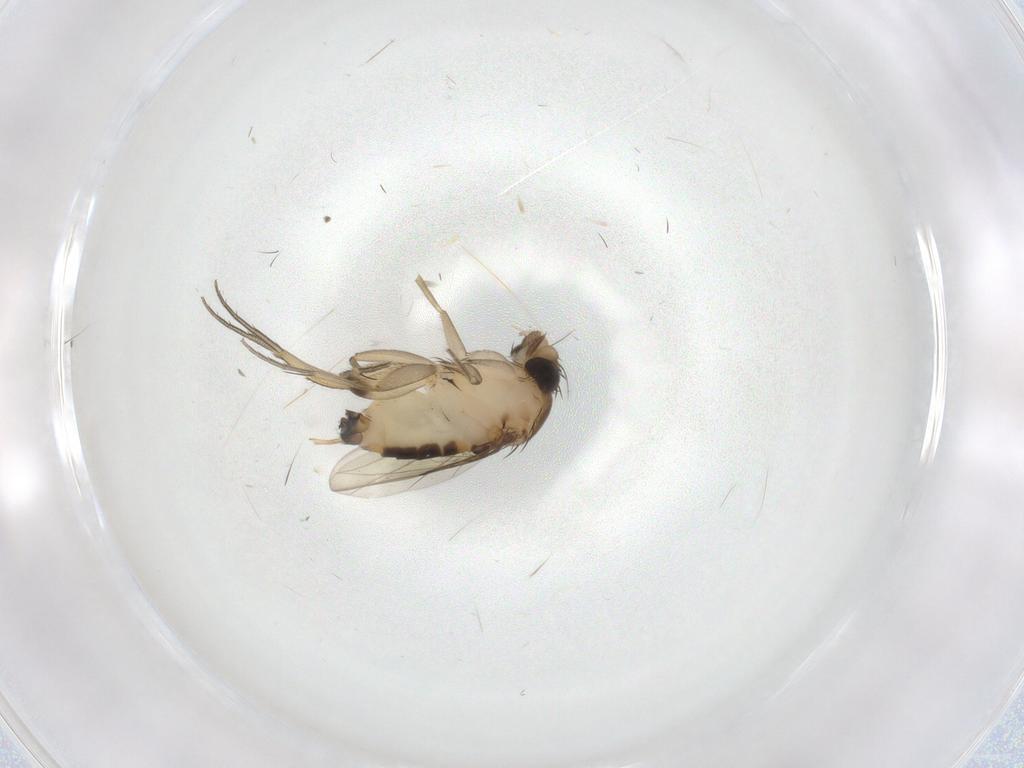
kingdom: Animalia
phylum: Arthropoda
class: Insecta
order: Diptera
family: Phoridae
